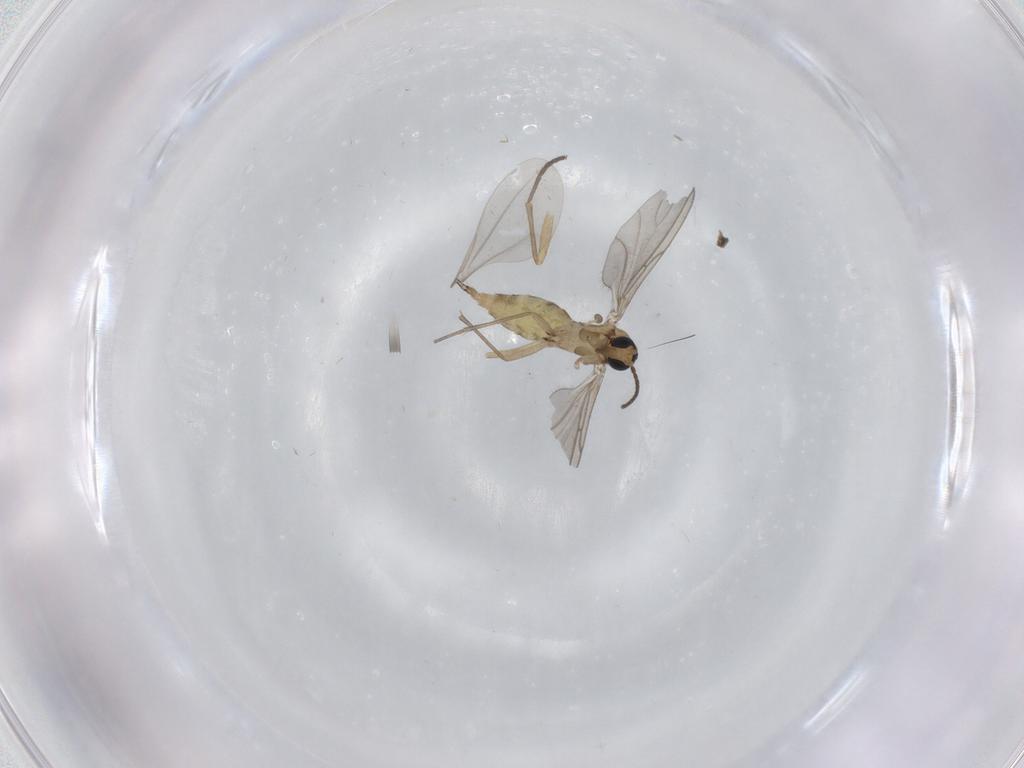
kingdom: Animalia
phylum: Arthropoda
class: Insecta
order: Diptera
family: Sciaridae
